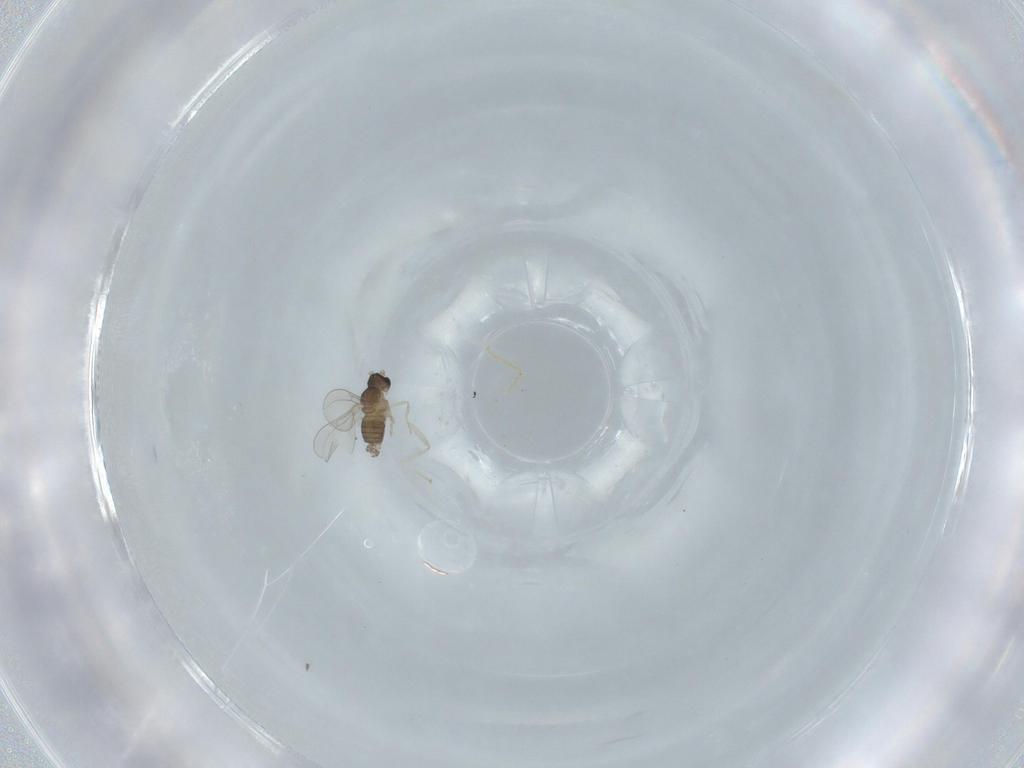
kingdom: Animalia
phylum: Arthropoda
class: Insecta
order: Diptera
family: Cecidomyiidae
